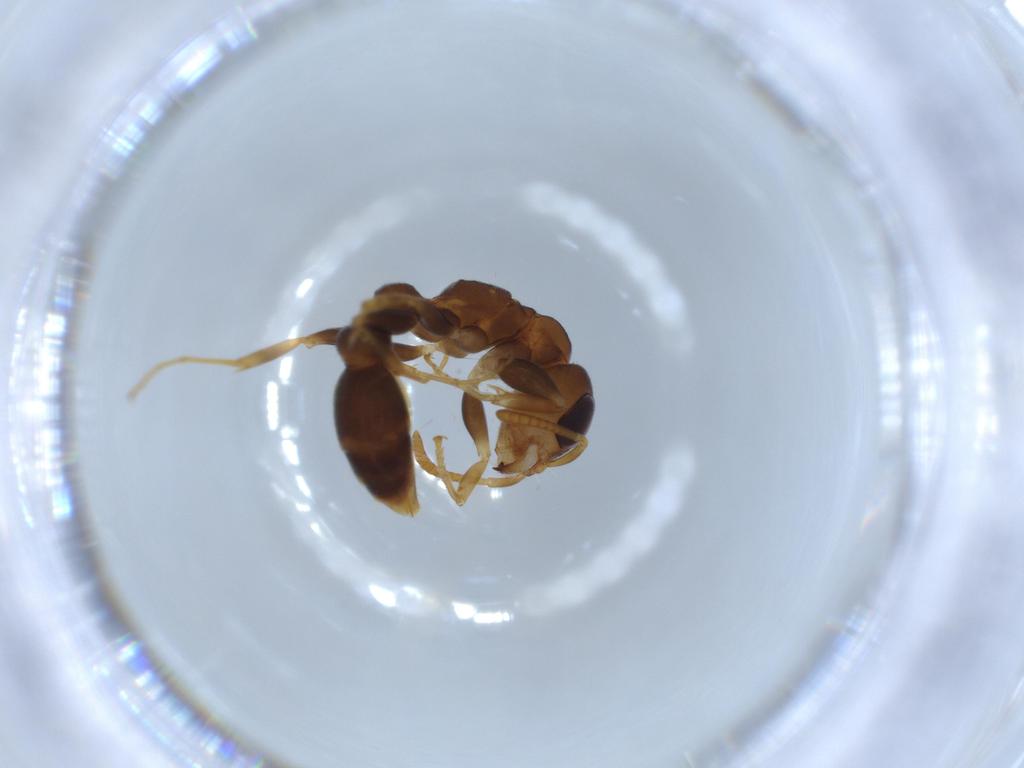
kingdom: Animalia
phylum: Arthropoda
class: Insecta
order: Hymenoptera
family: Formicidae
